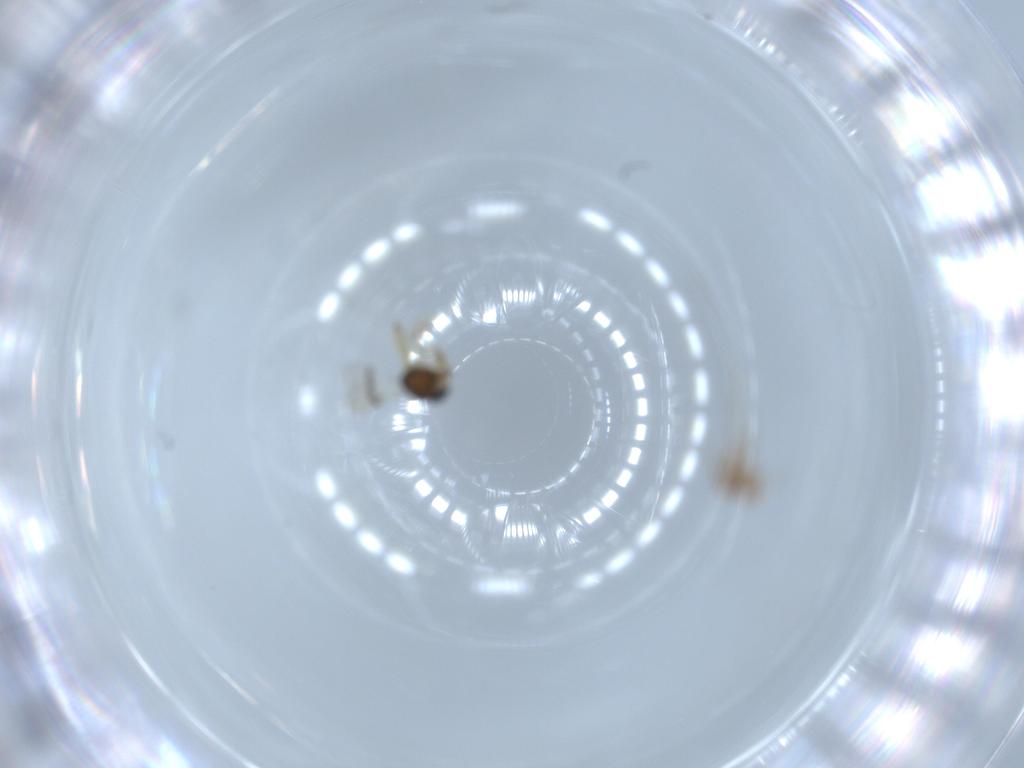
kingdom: Animalia
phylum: Arthropoda
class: Insecta
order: Hymenoptera
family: Scelionidae
